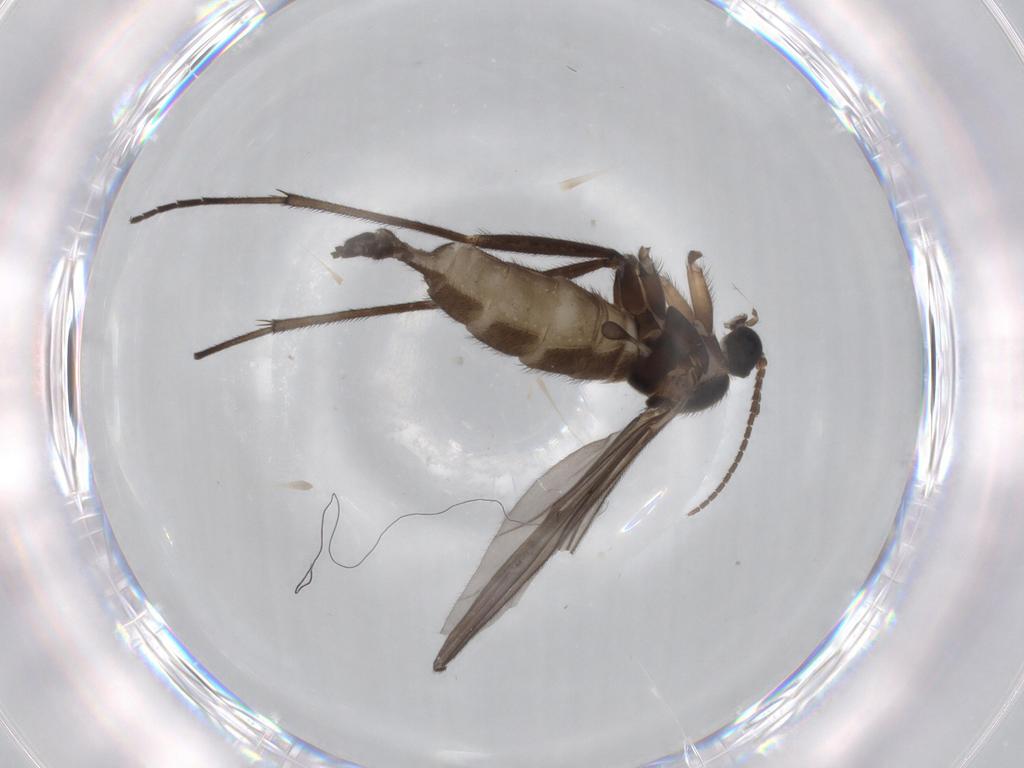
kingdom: Animalia
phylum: Arthropoda
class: Insecta
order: Diptera
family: Sciaridae
